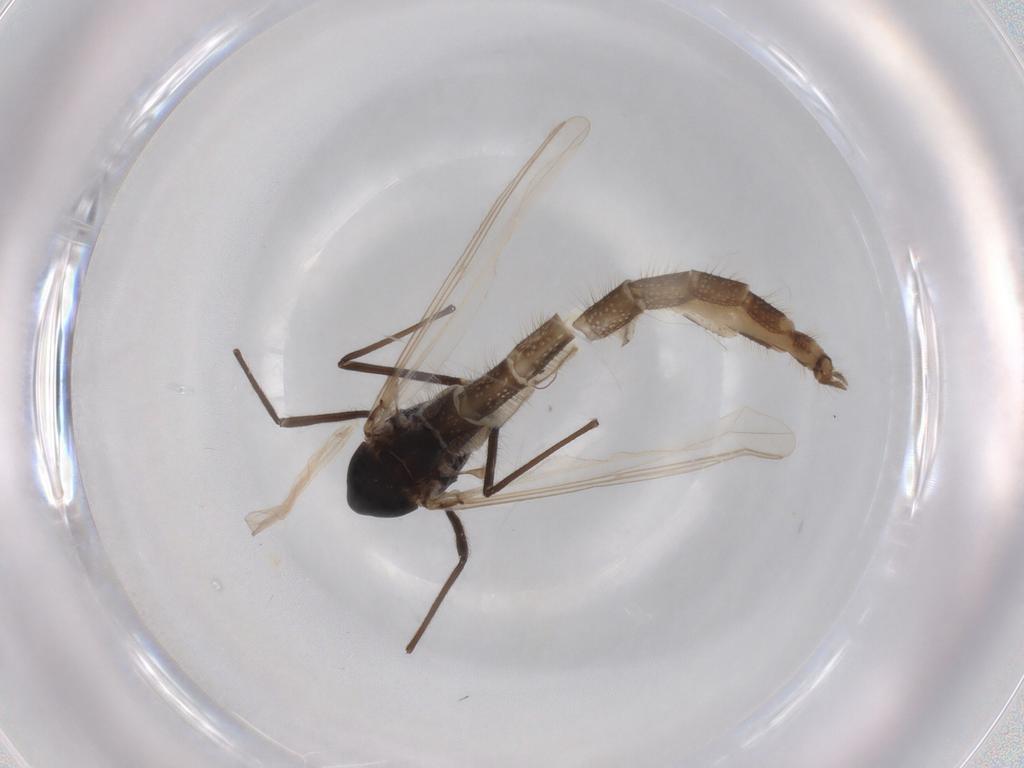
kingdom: Animalia
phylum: Arthropoda
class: Insecta
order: Diptera
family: Chironomidae
